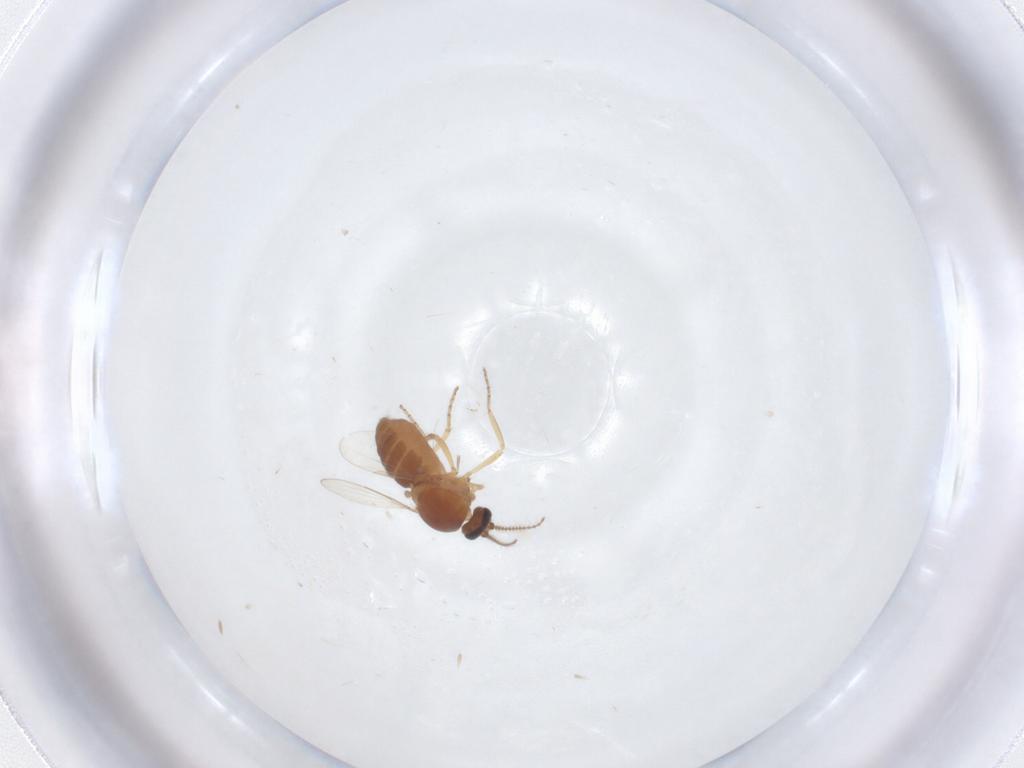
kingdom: Animalia
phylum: Arthropoda
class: Insecta
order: Diptera
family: Ceratopogonidae
